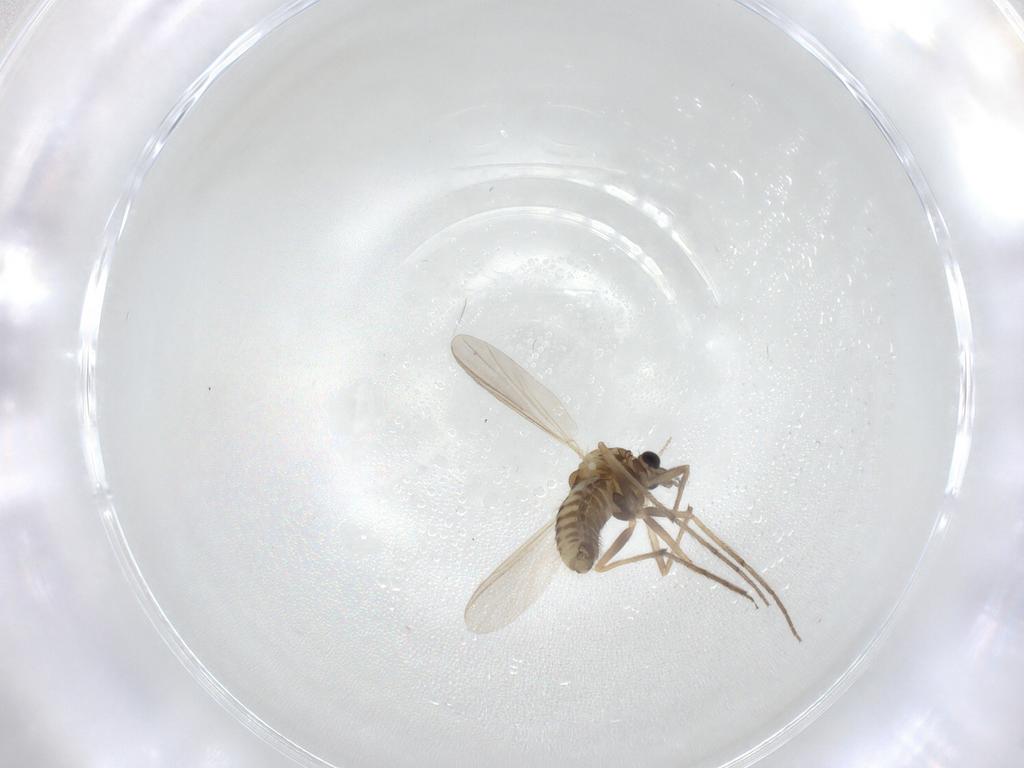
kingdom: Animalia
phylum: Arthropoda
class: Insecta
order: Diptera
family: Chironomidae
